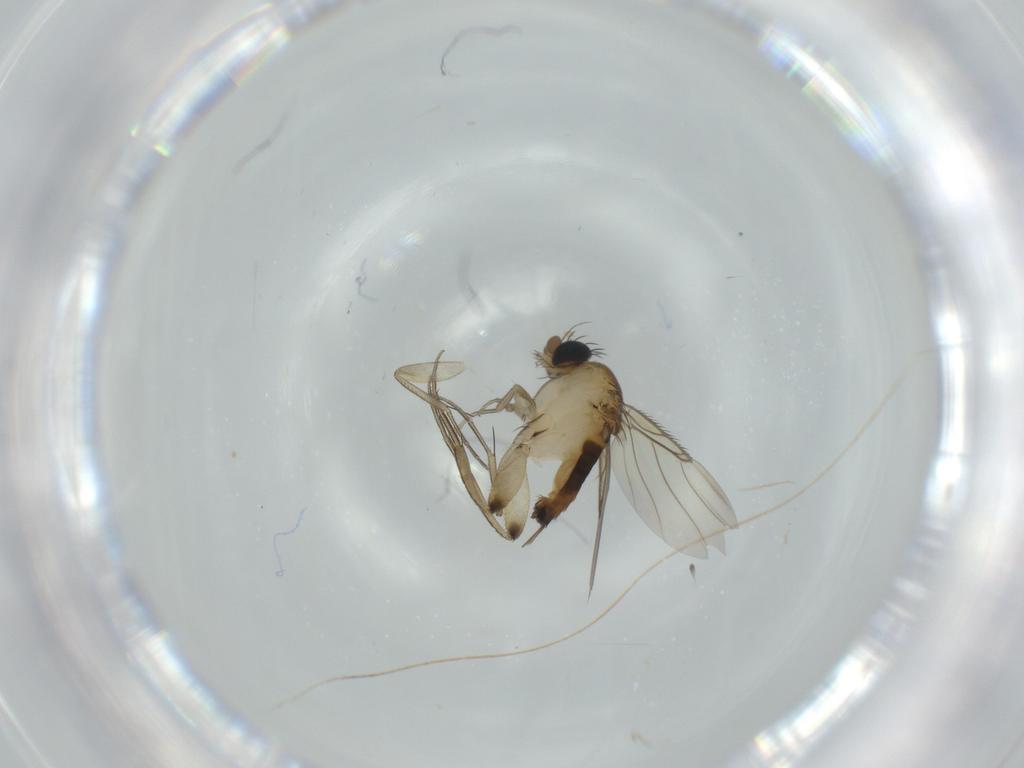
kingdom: Animalia
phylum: Arthropoda
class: Insecta
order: Diptera
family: Phoridae
